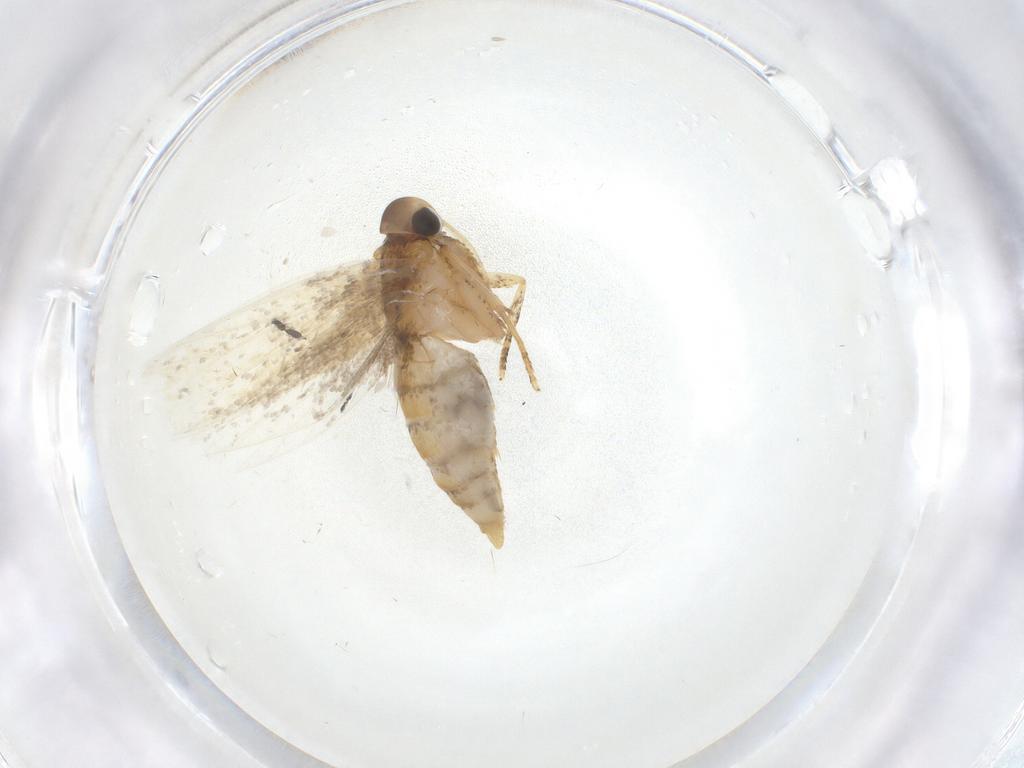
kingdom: Animalia
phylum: Arthropoda
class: Insecta
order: Lepidoptera
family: Oecophoridae
